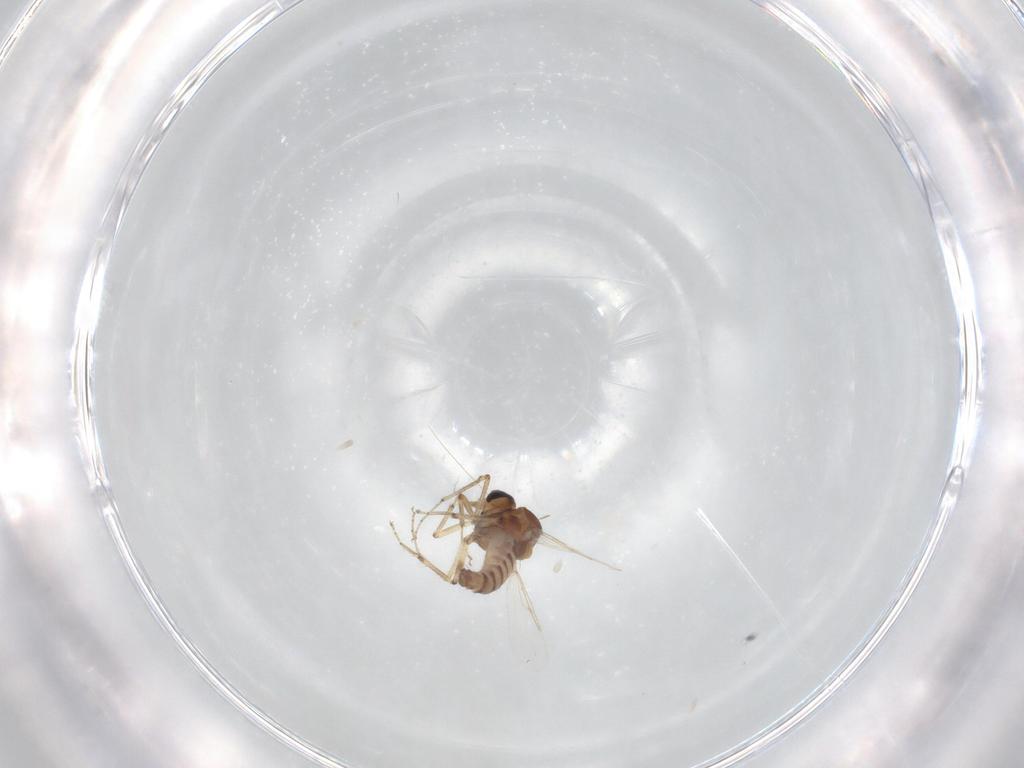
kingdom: Animalia
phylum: Arthropoda
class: Insecta
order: Diptera
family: Ceratopogonidae
